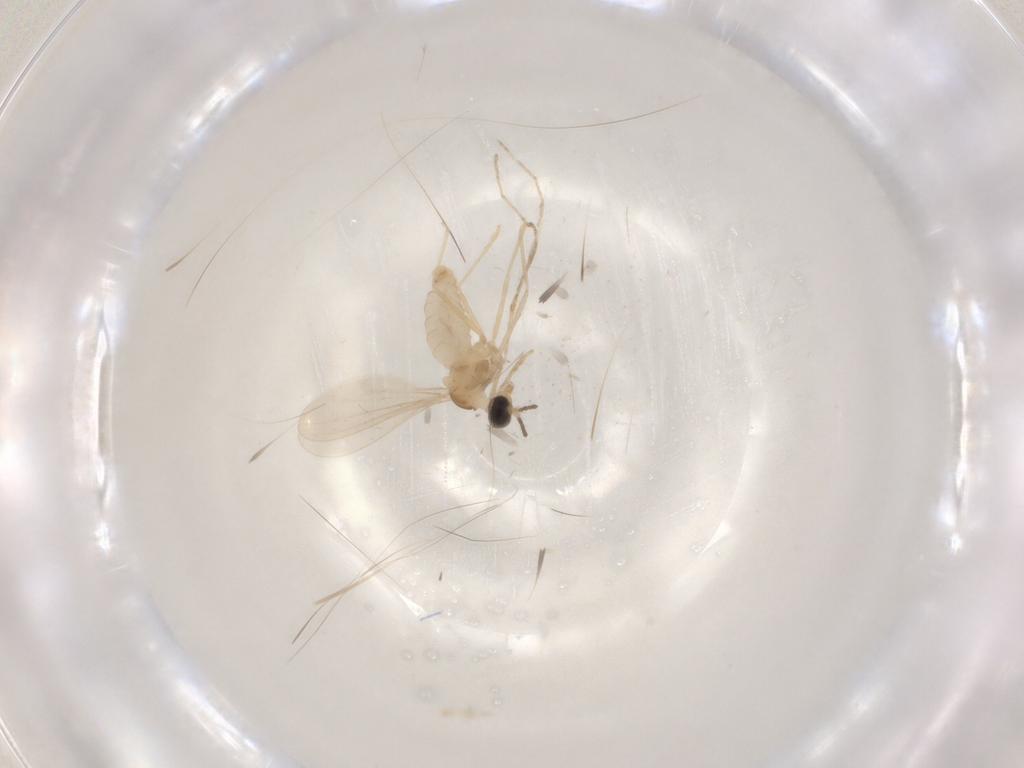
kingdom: Animalia
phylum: Arthropoda
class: Insecta
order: Diptera
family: Cecidomyiidae
